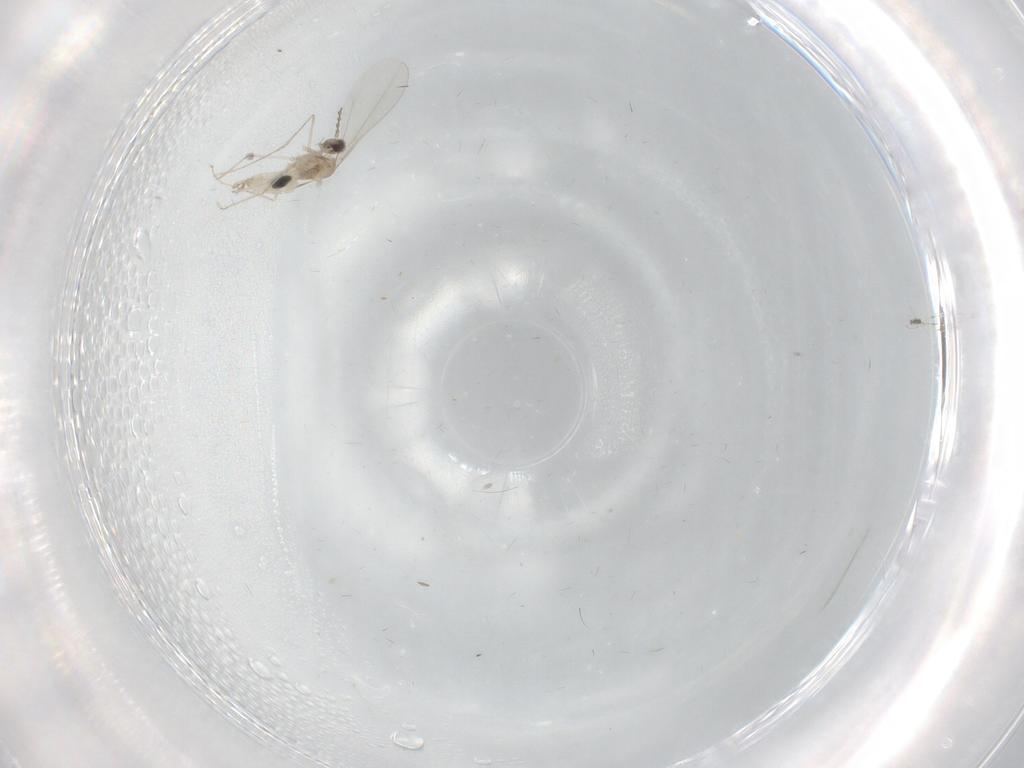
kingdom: Animalia
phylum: Arthropoda
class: Insecta
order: Diptera
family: Cecidomyiidae
